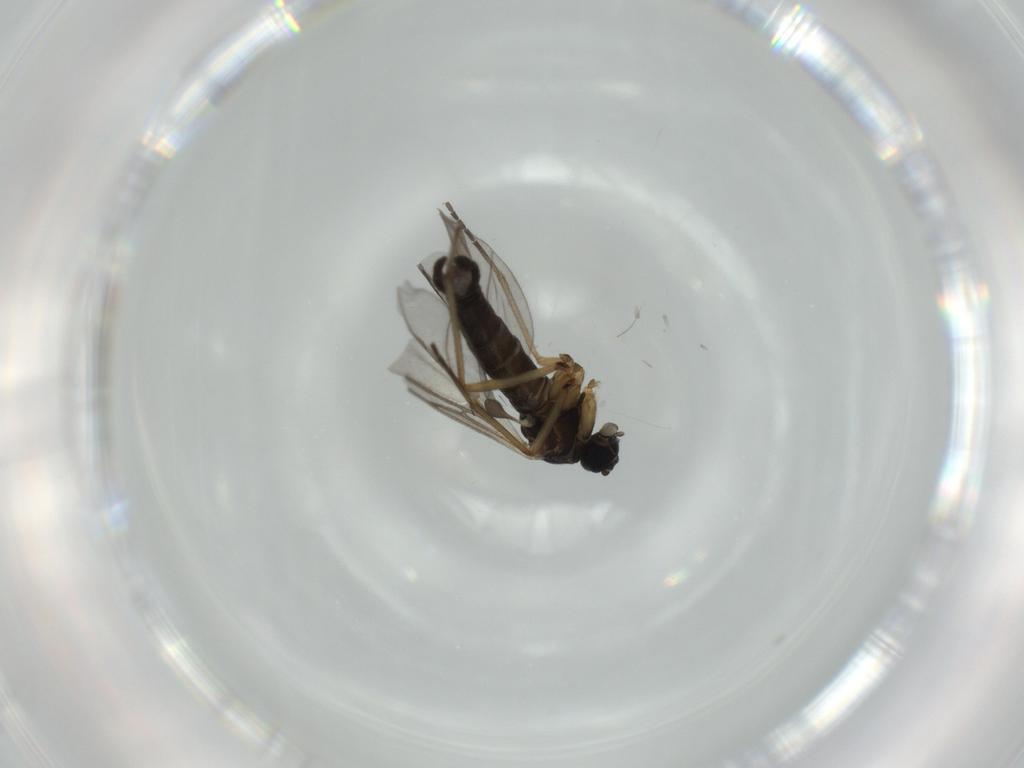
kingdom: Animalia
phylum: Arthropoda
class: Insecta
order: Diptera
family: Sciaridae
